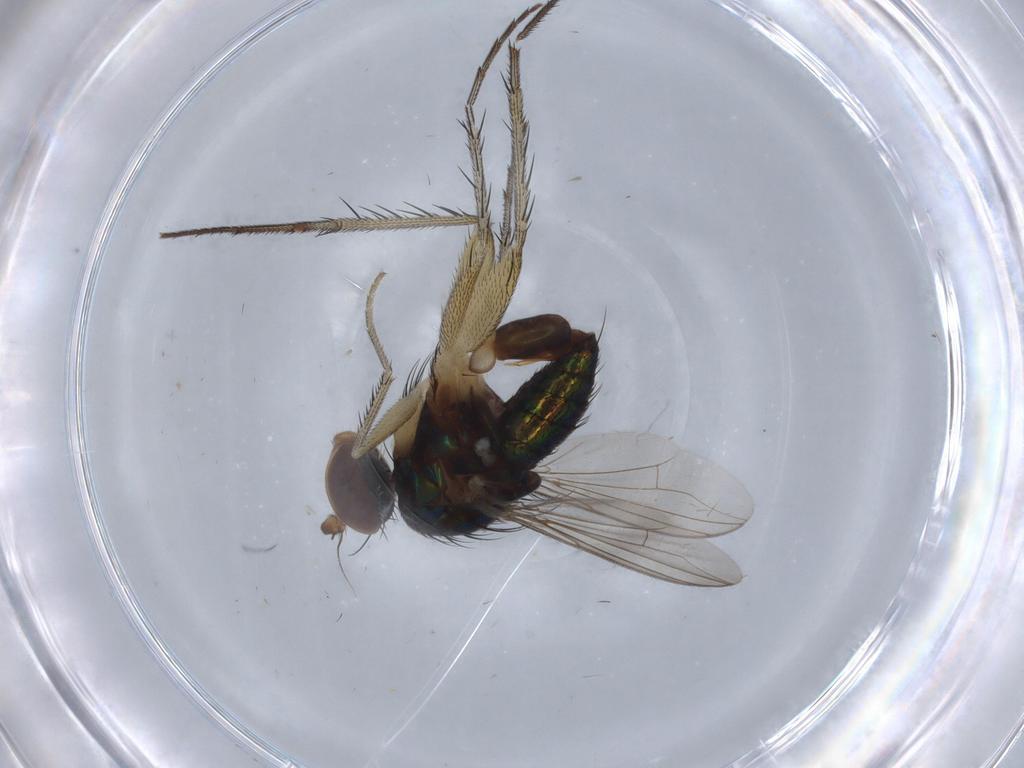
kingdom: Animalia
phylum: Arthropoda
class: Insecta
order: Diptera
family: Dolichopodidae
